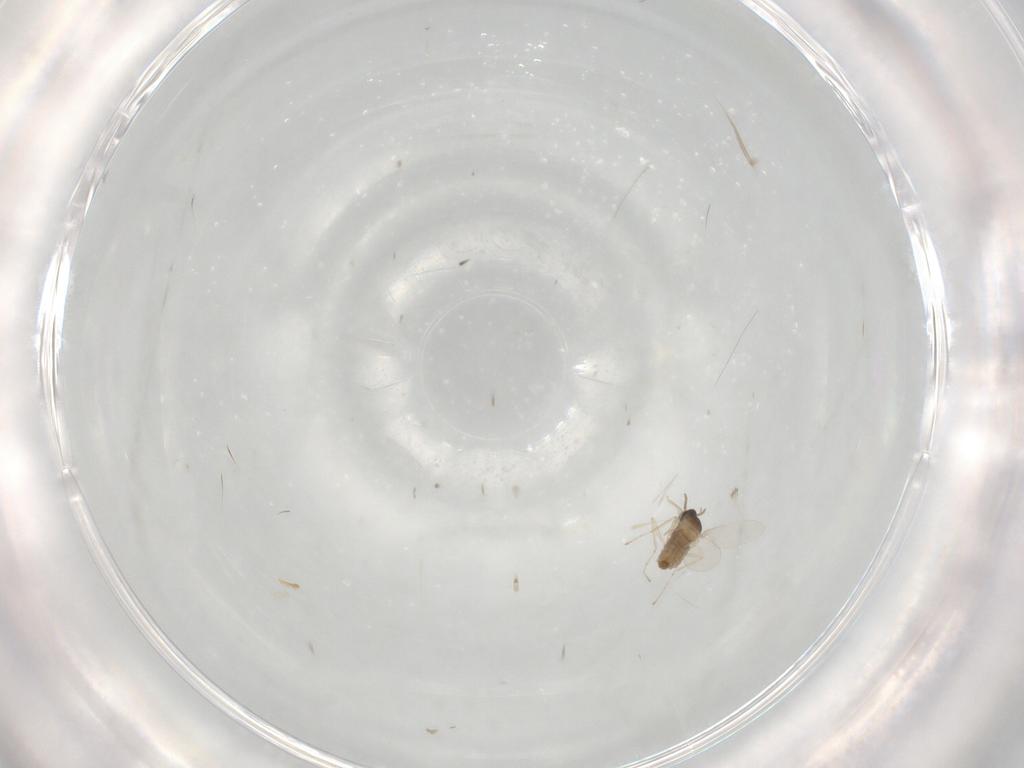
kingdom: Animalia
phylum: Arthropoda
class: Insecta
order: Diptera
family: Cecidomyiidae
